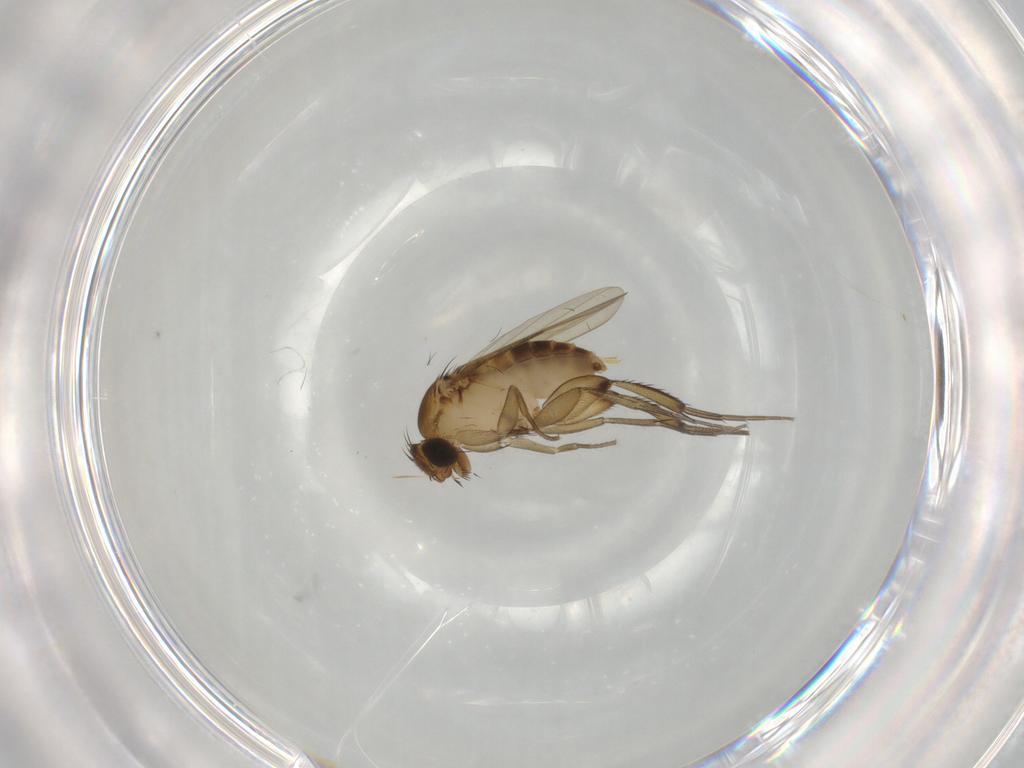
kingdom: Animalia
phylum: Arthropoda
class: Insecta
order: Diptera
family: Phoridae
